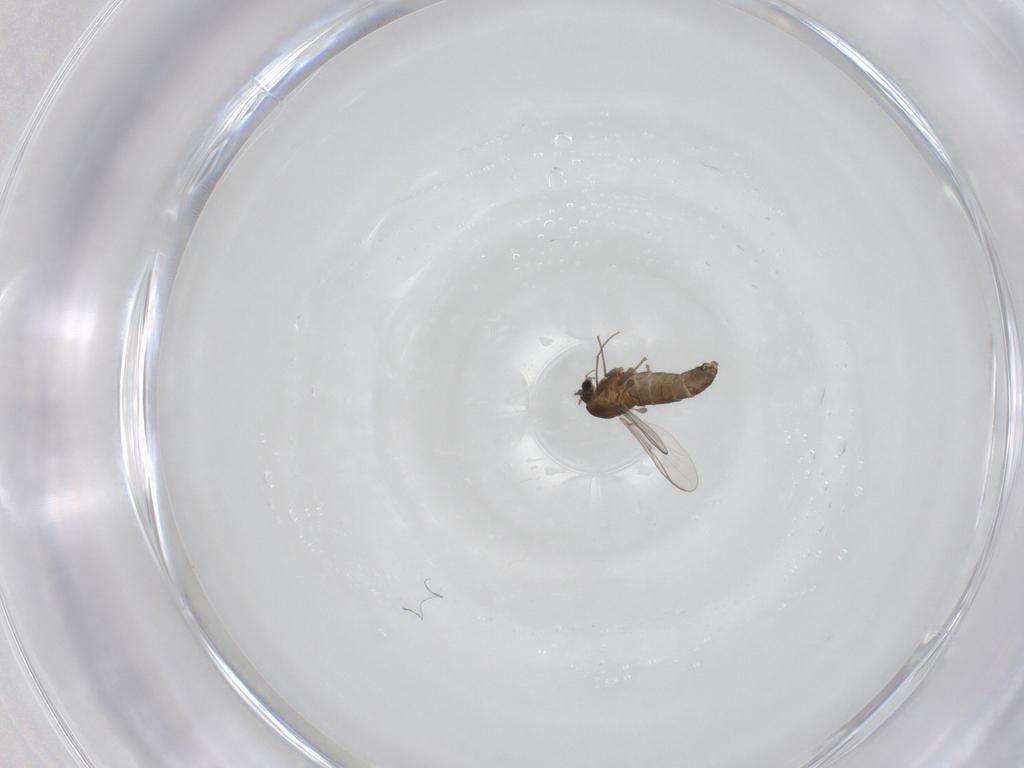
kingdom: Animalia
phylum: Arthropoda
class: Insecta
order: Diptera
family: Chironomidae
